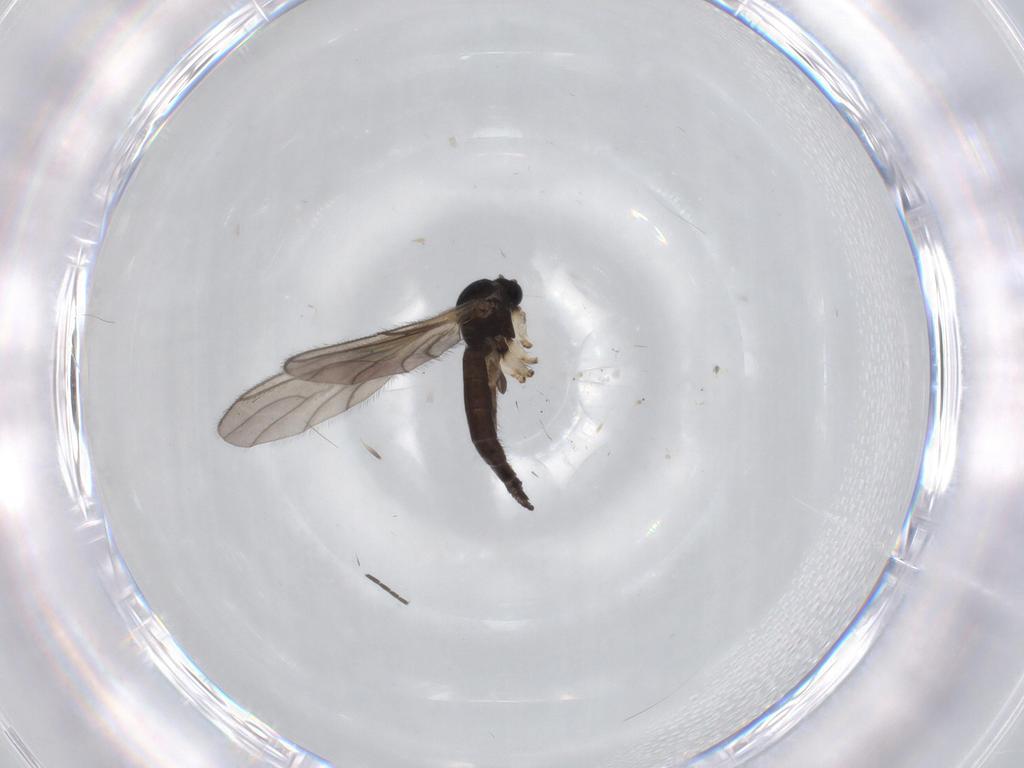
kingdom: Animalia
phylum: Arthropoda
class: Insecta
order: Diptera
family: Sciaridae
